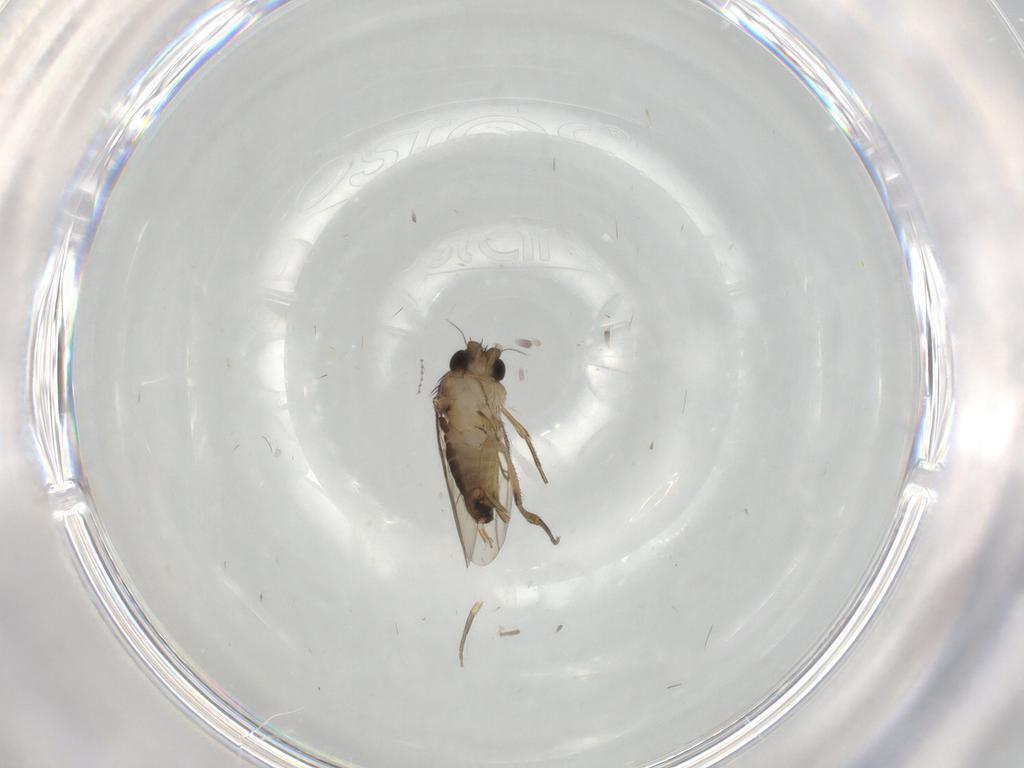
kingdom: Animalia
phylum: Arthropoda
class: Insecta
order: Diptera
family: Phoridae
